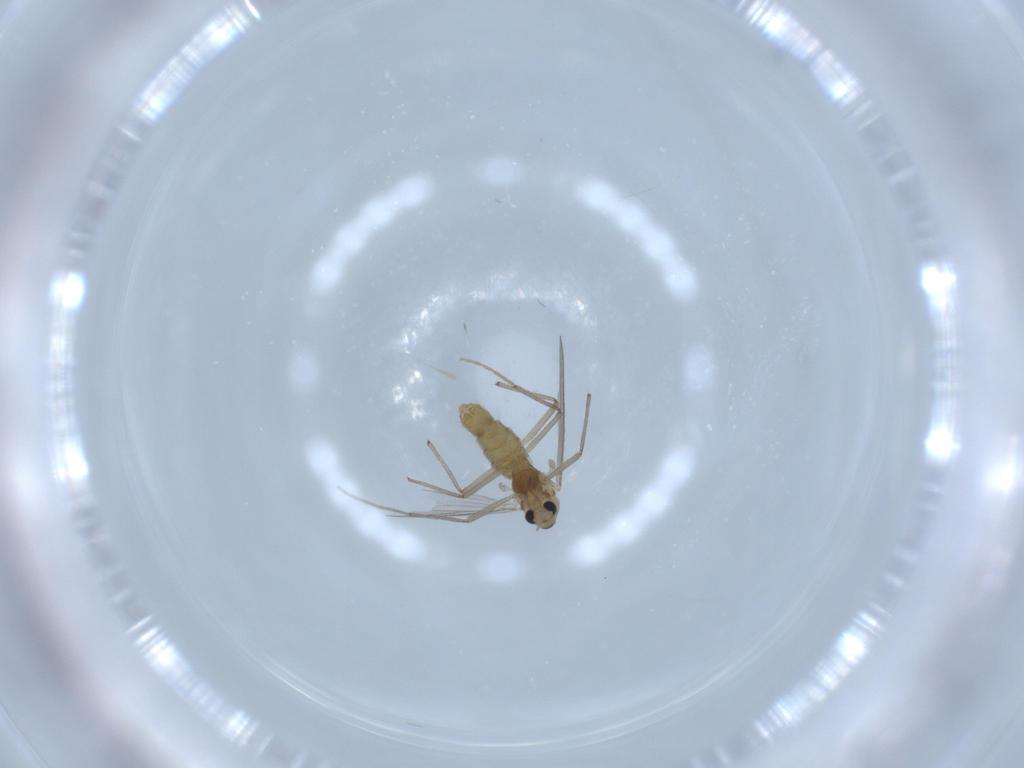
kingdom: Animalia
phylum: Arthropoda
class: Insecta
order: Diptera
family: Chironomidae
